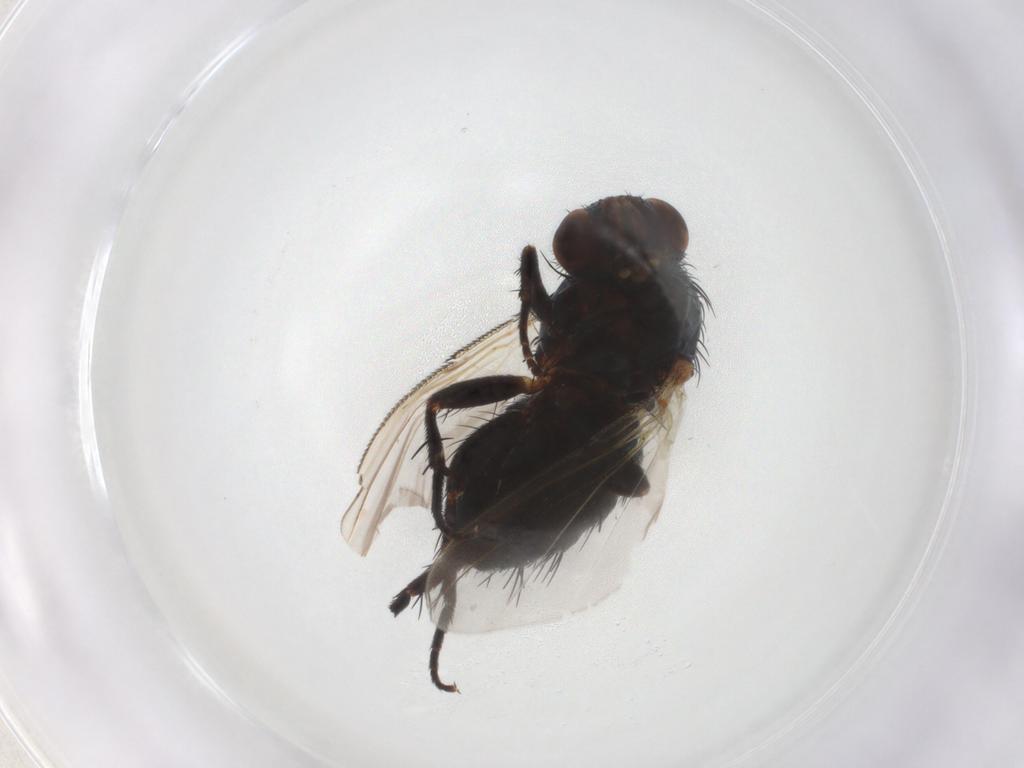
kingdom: Animalia
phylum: Arthropoda
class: Insecta
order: Diptera
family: Tachinidae
